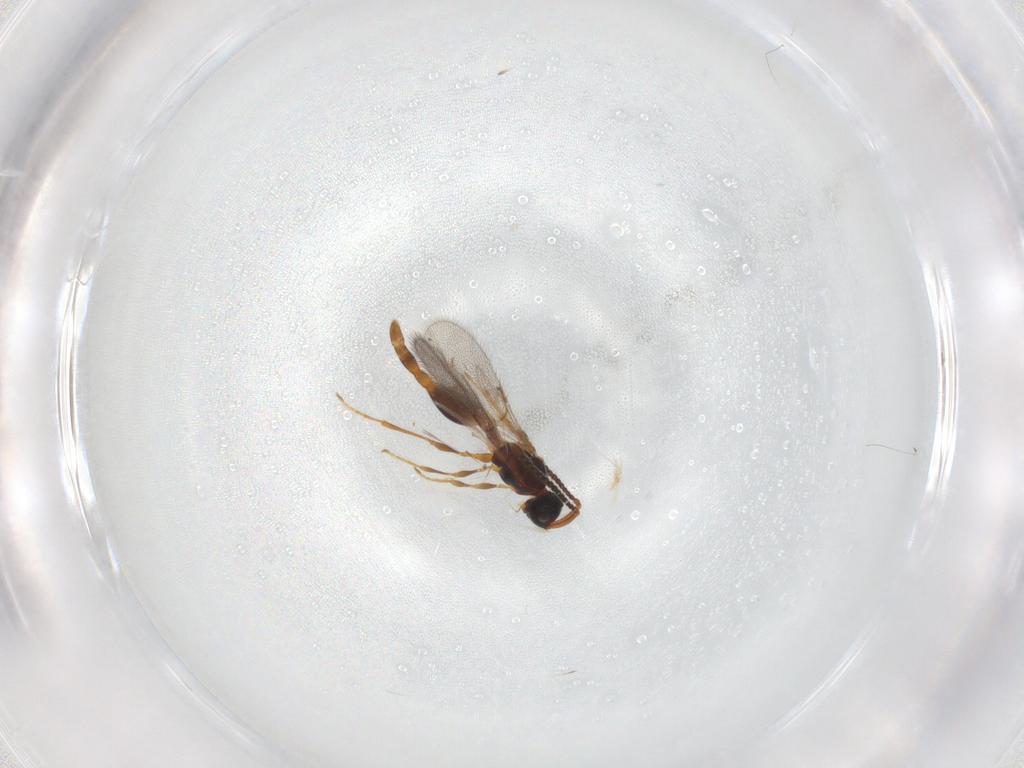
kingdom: Animalia
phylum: Arthropoda
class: Insecta
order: Hymenoptera
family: Diapriidae
